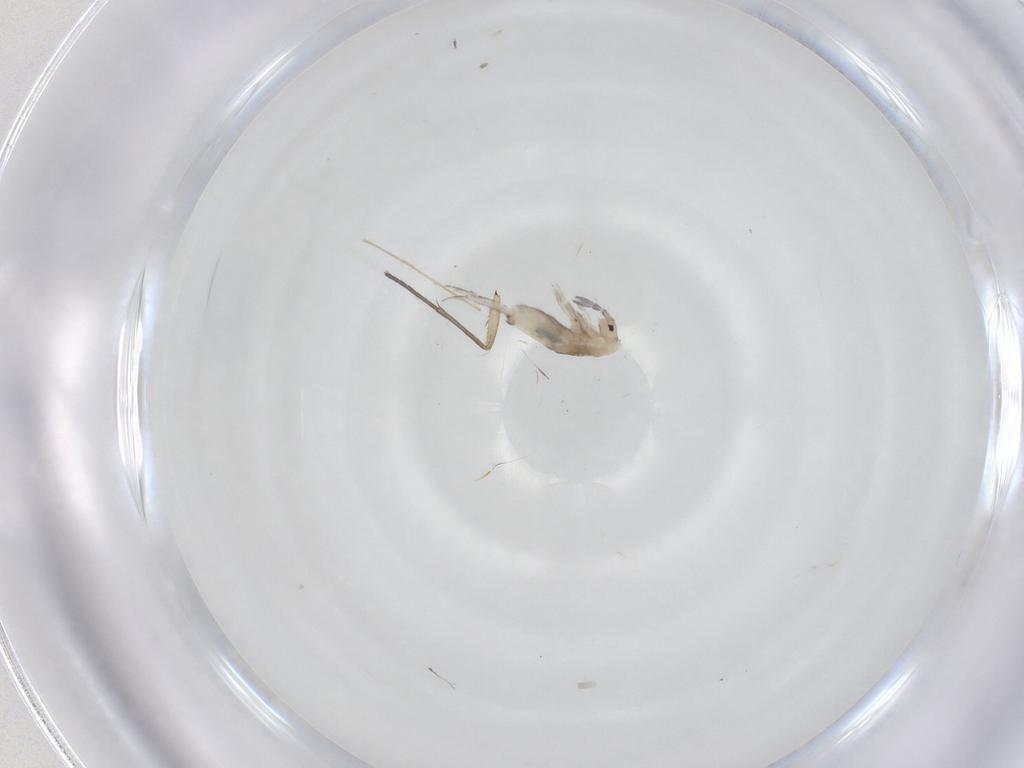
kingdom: Animalia
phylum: Arthropoda
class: Insecta
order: Diptera
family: Chironomidae
